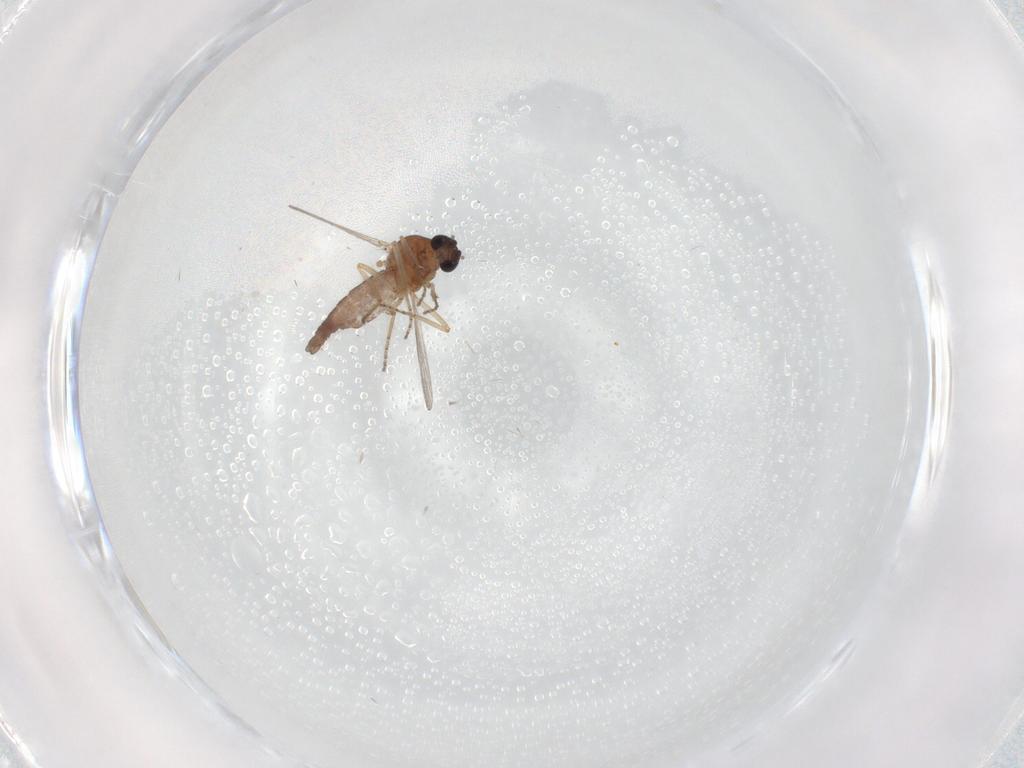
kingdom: Animalia
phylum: Arthropoda
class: Insecta
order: Diptera
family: Ceratopogonidae
